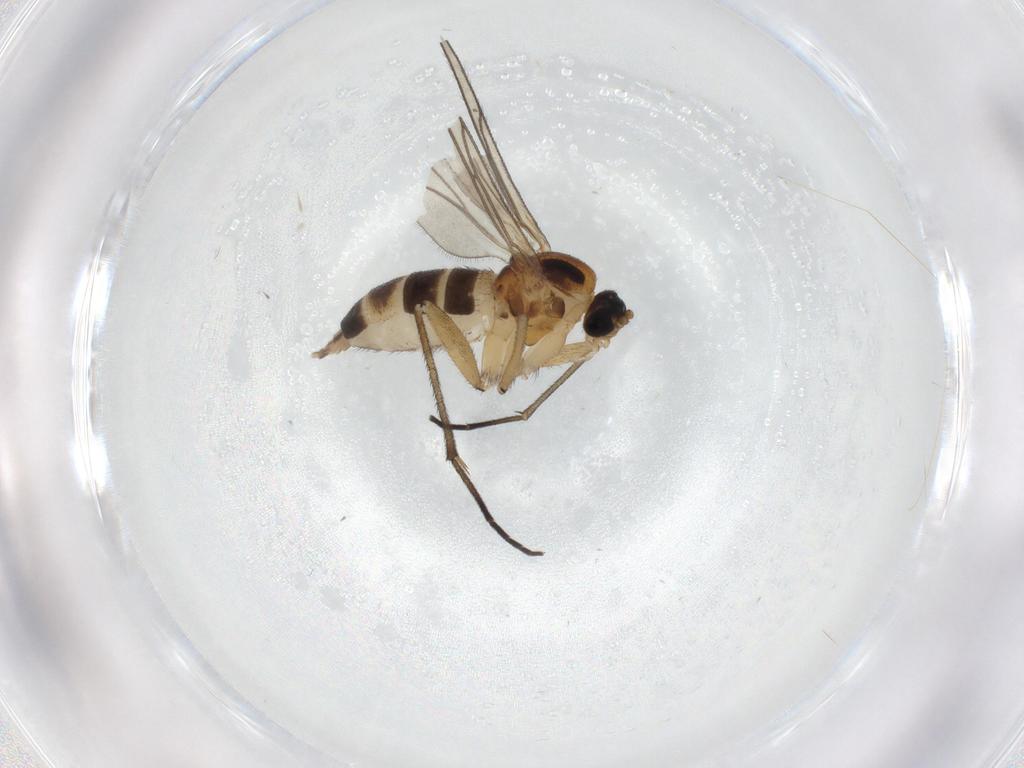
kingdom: Animalia
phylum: Arthropoda
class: Insecta
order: Diptera
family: Sciaridae
